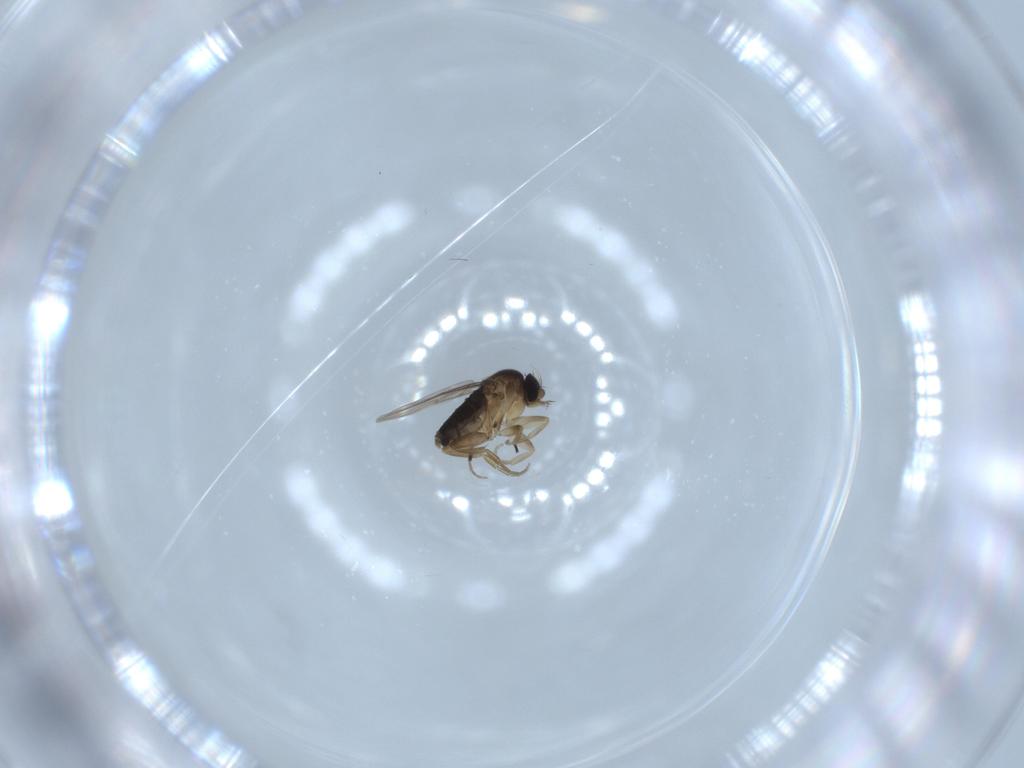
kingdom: Animalia
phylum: Arthropoda
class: Insecta
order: Diptera
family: Phoridae
